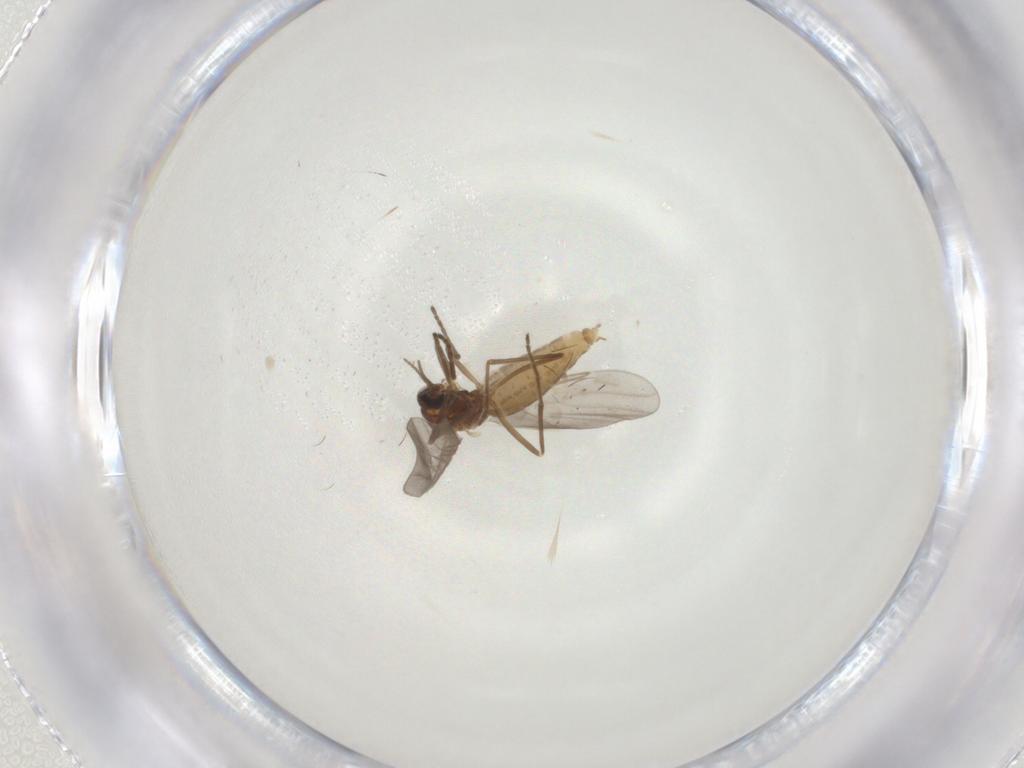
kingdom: Animalia
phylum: Arthropoda
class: Insecta
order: Diptera
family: Cecidomyiidae
